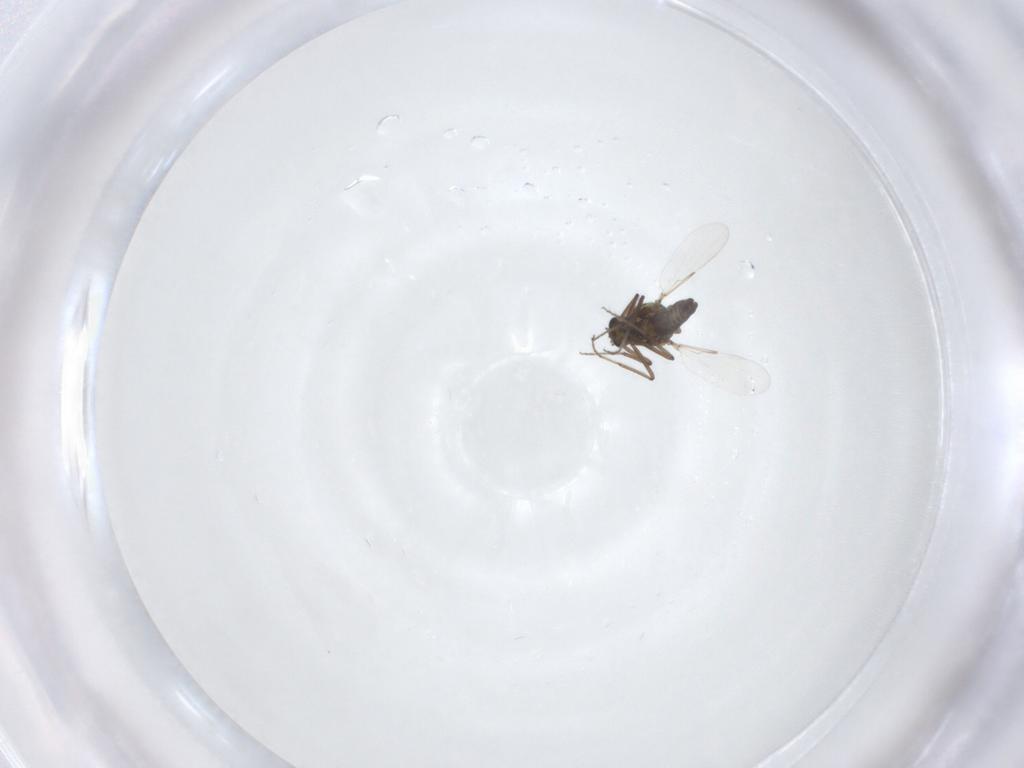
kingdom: Animalia
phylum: Arthropoda
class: Insecta
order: Diptera
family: Ceratopogonidae
